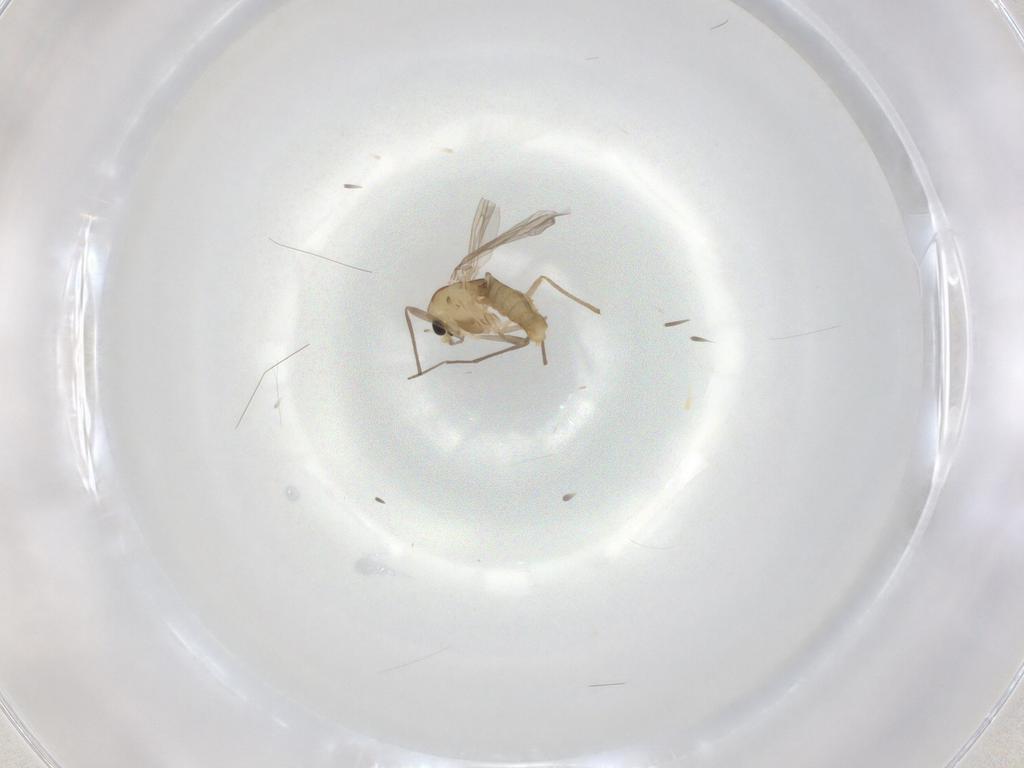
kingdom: Animalia
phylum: Arthropoda
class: Insecta
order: Diptera
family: Chironomidae
